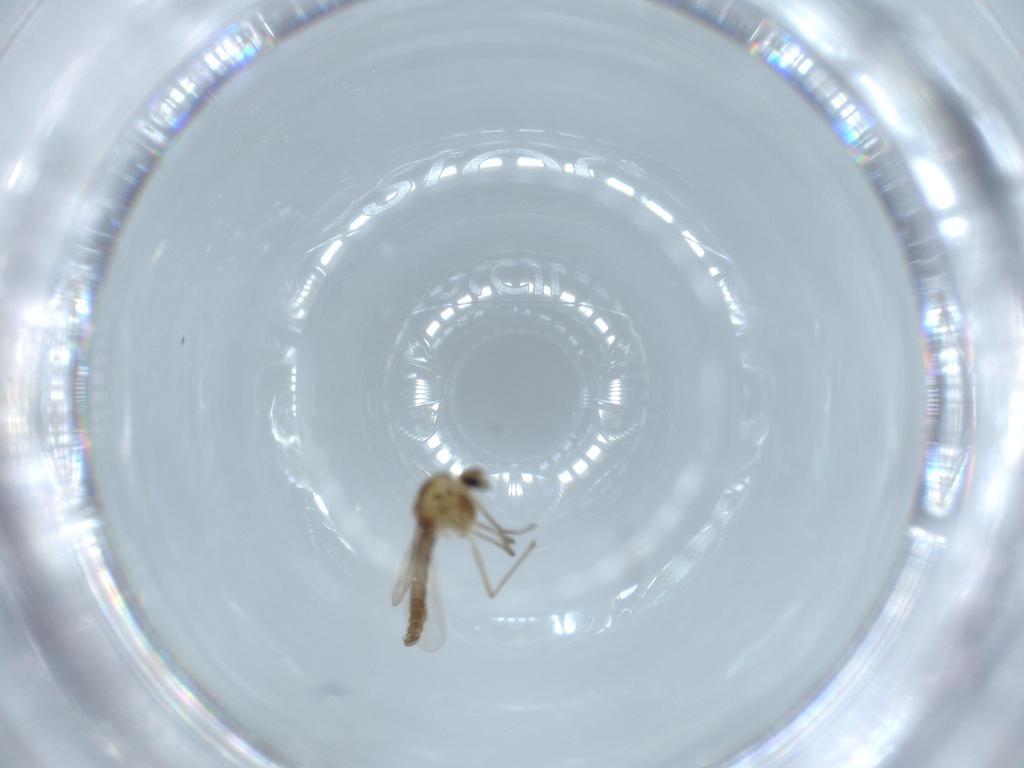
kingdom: Animalia
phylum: Arthropoda
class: Insecta
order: Diptera
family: Chironomidae
